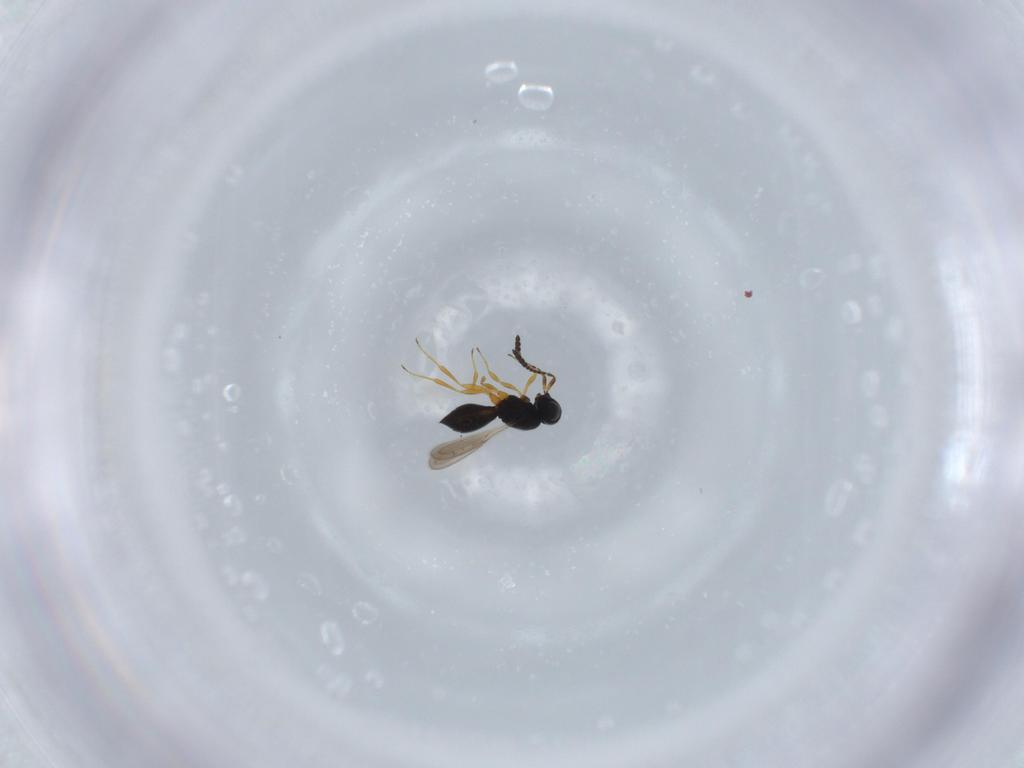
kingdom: Animalia
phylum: Arthropoda
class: Insecta
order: Hymenoptera
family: Scelionidae
